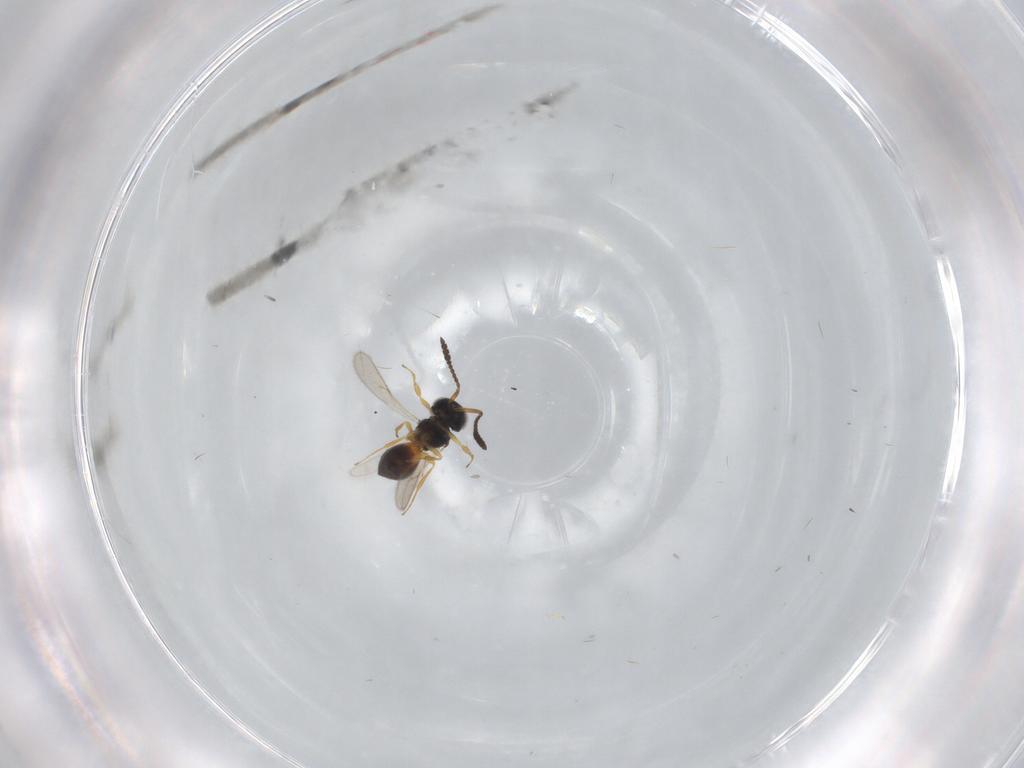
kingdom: Animalia
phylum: Arthropoda
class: Insecta
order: Hymenoptera
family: Scelionidae
